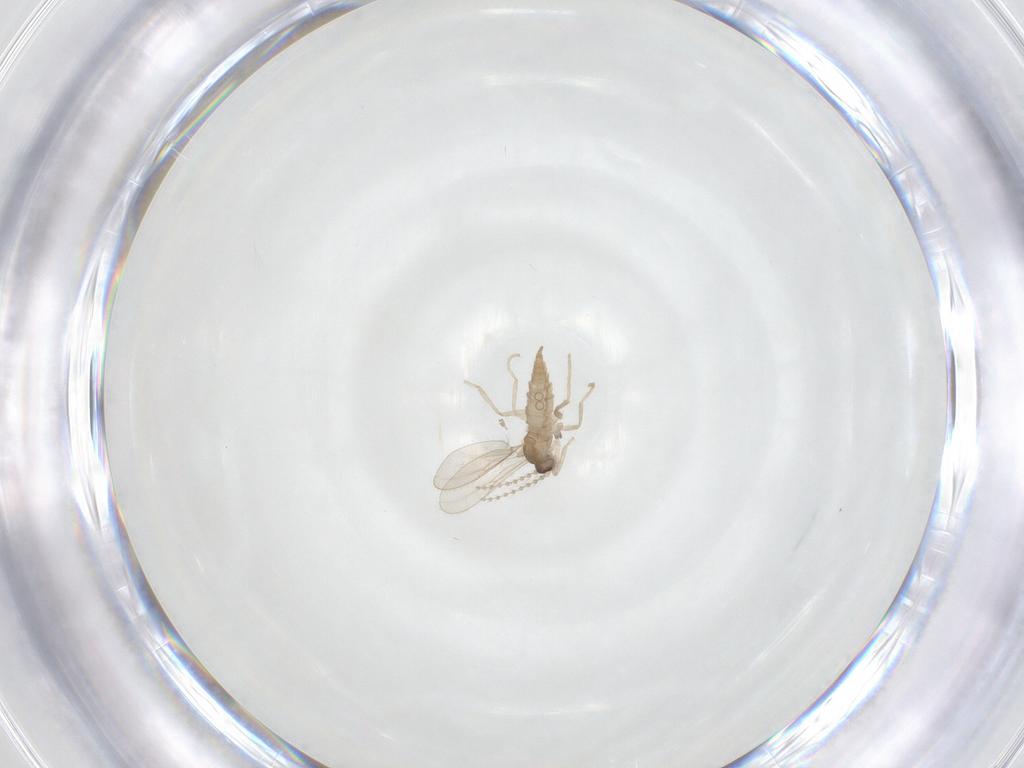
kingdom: Animalia
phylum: Arthropoda
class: Insecta
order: Diptera
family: Cecidomyiidae
